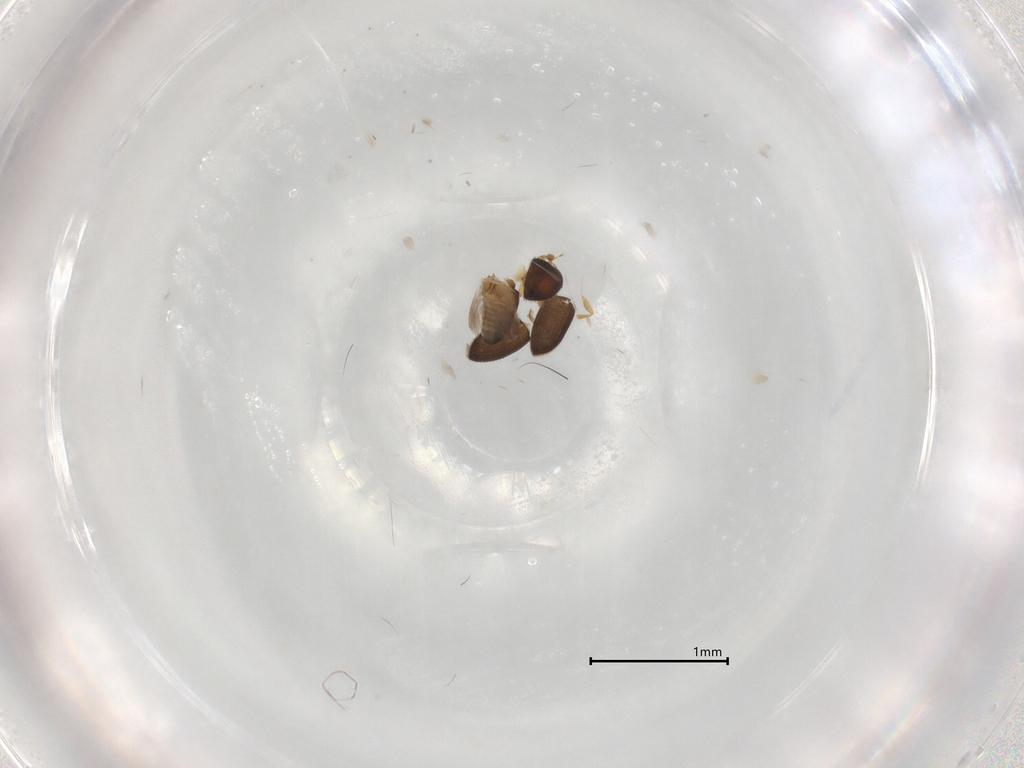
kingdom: Animalia
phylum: Arthropoda
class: Insecta
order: Coleoptera
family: Curculionidae
